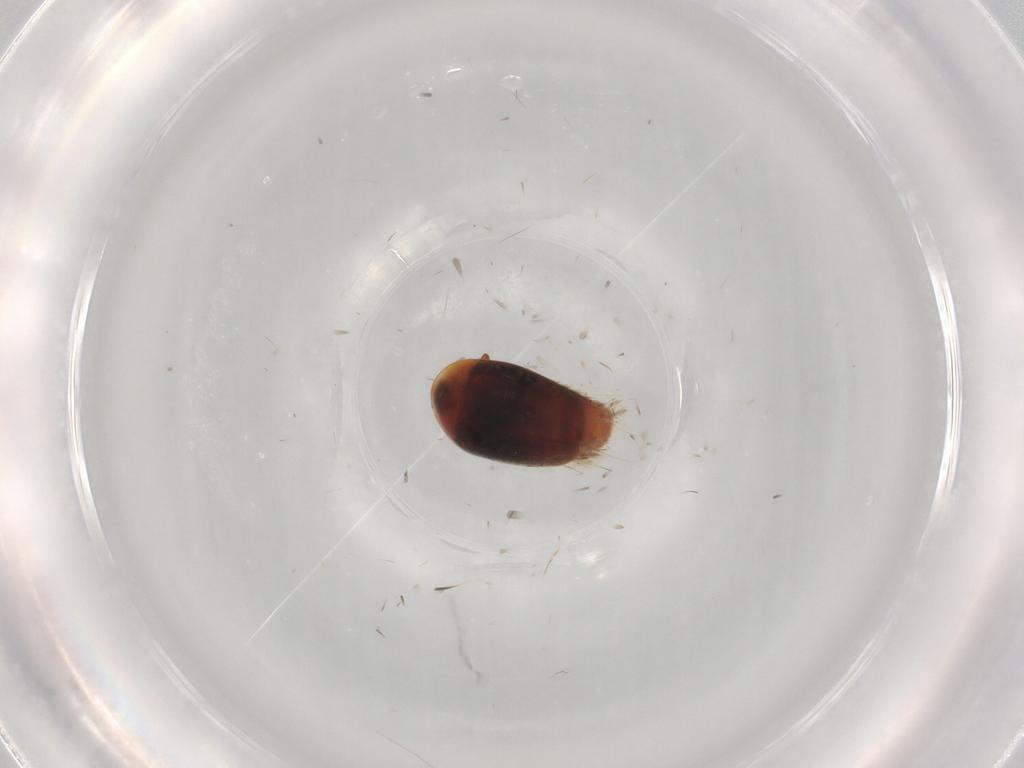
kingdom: Animalia
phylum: Arthropoda
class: Insecta
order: Coleoptera
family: Corylophidae
